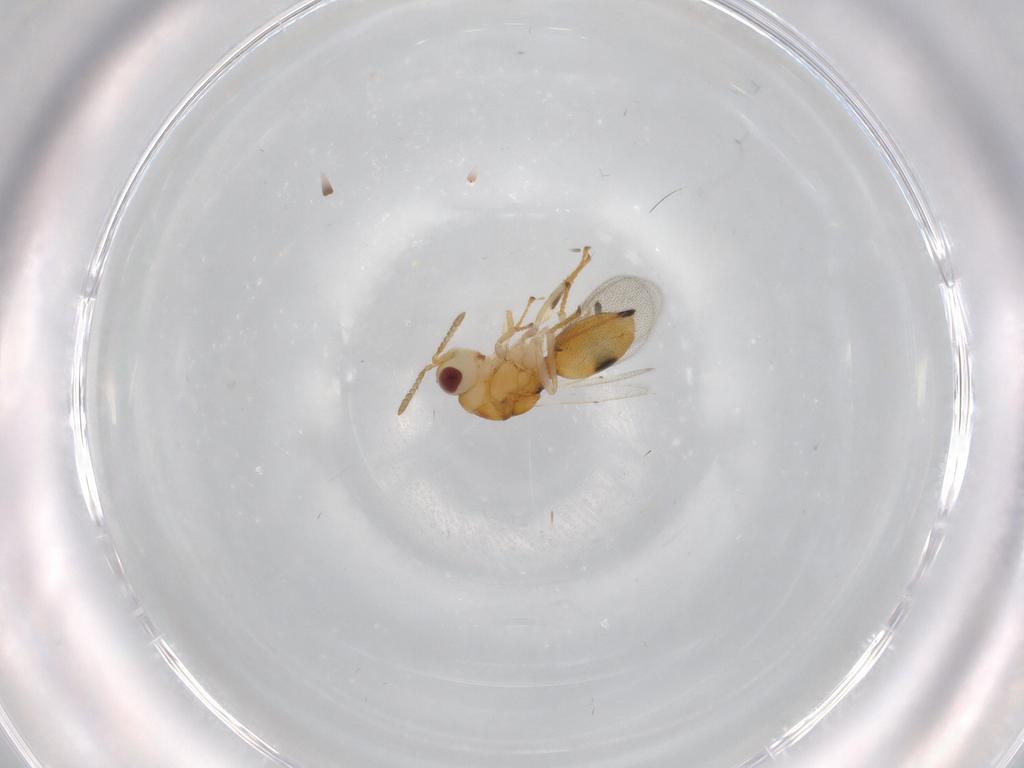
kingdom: Animalia
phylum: Arthropoda
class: Insecta
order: Hymenoptera
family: Eurytomidae
